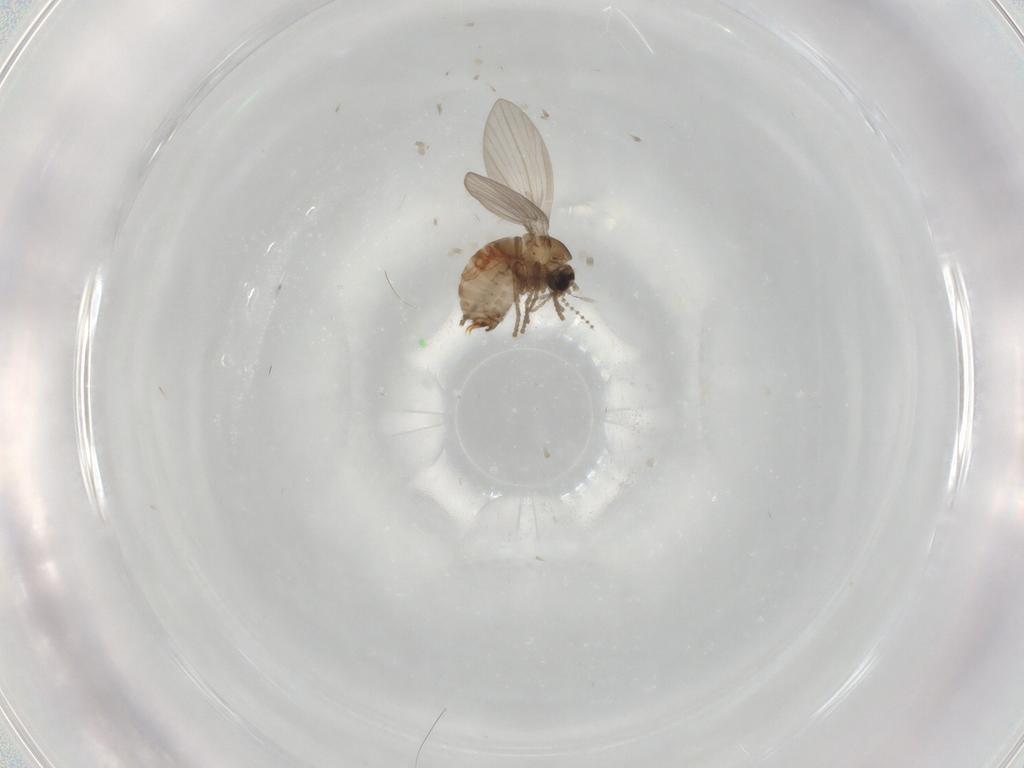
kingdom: Animalia
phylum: Arthropoda
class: Insecta
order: Diptera
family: Psychodidae
